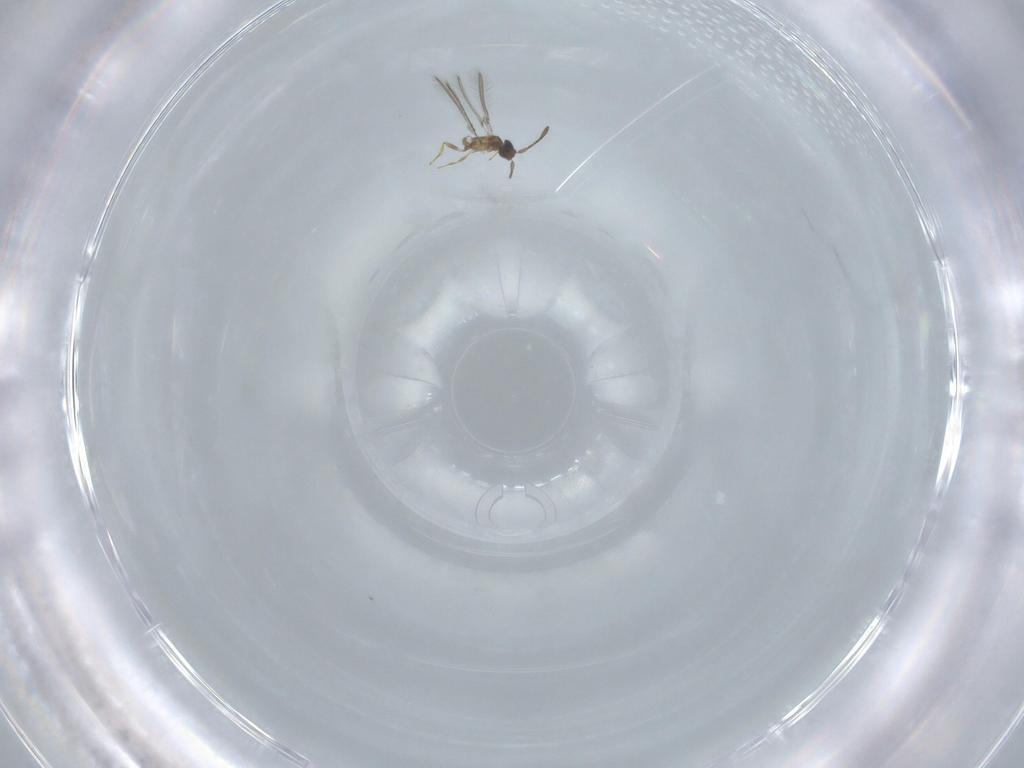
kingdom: Animalia
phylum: Arthropoda
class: Insecta
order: Hymenoptera
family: Mymaridae
